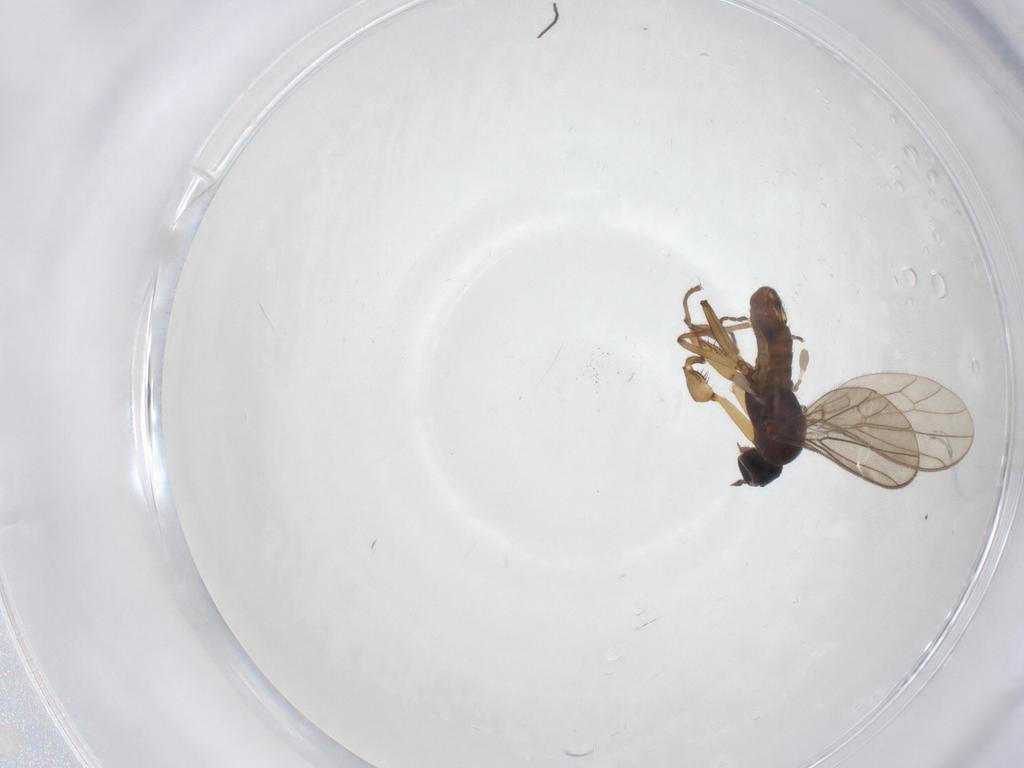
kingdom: Animalia
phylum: Arthropoda
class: Insecta
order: Diptera
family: Empididae
